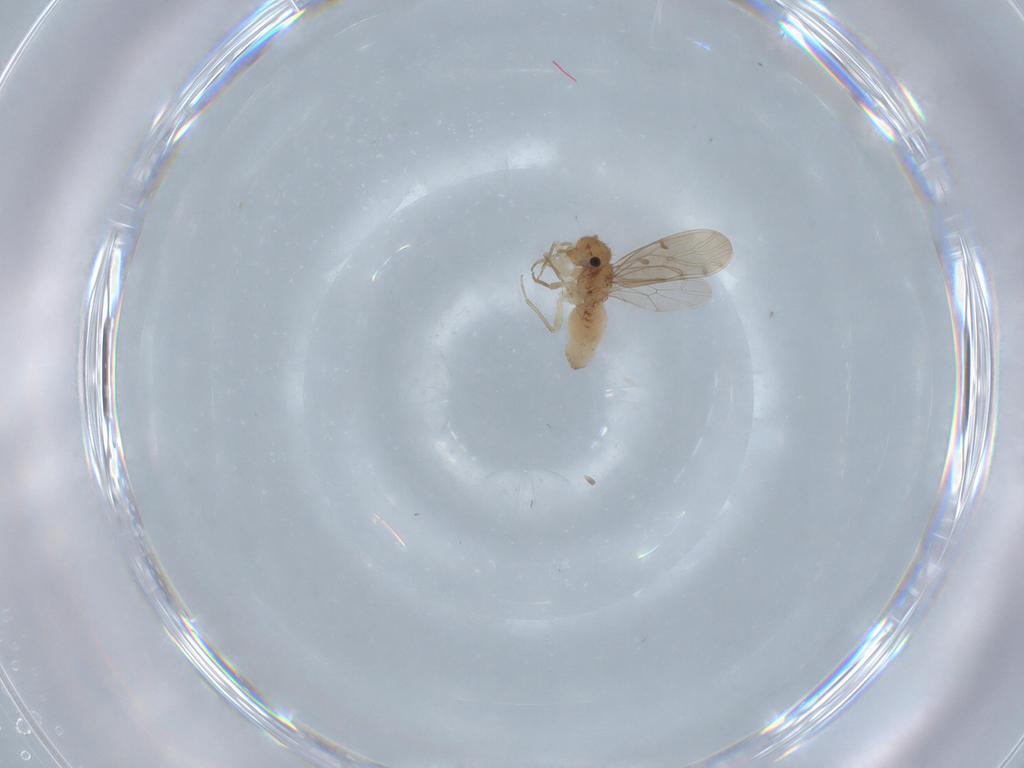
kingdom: Animalia
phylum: Arthropoda
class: Insecta
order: Psocodea
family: Ectopsocidae
